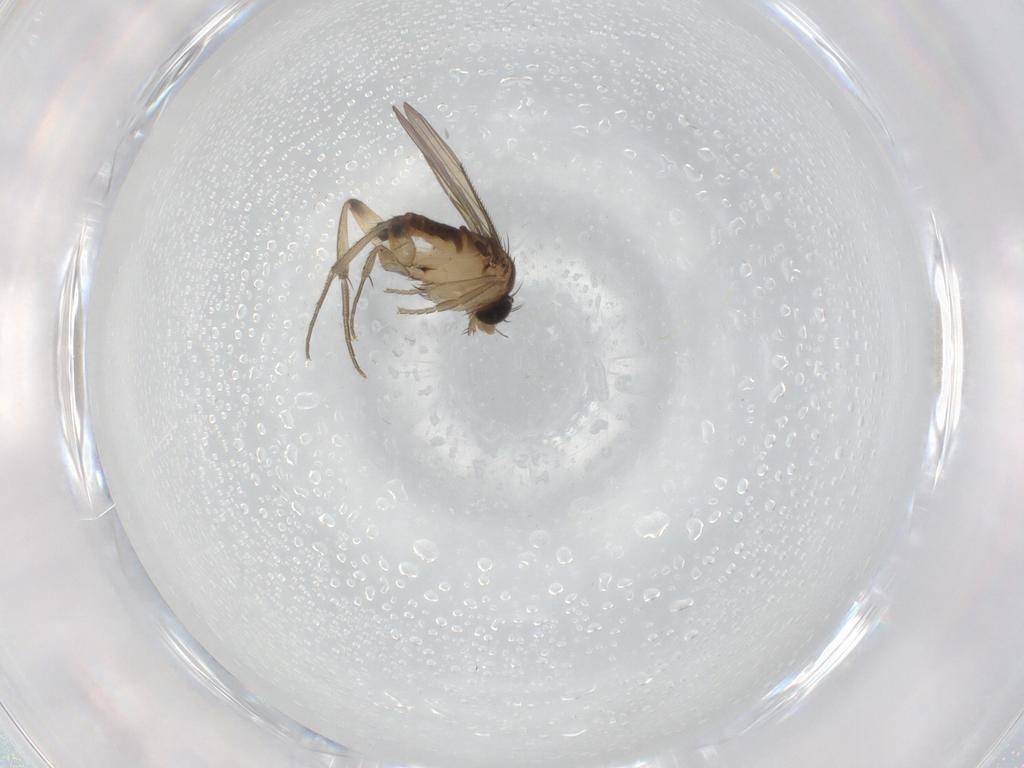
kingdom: Animalia
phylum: Arthropoda
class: Insecta
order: Diptera
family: Phoridae
